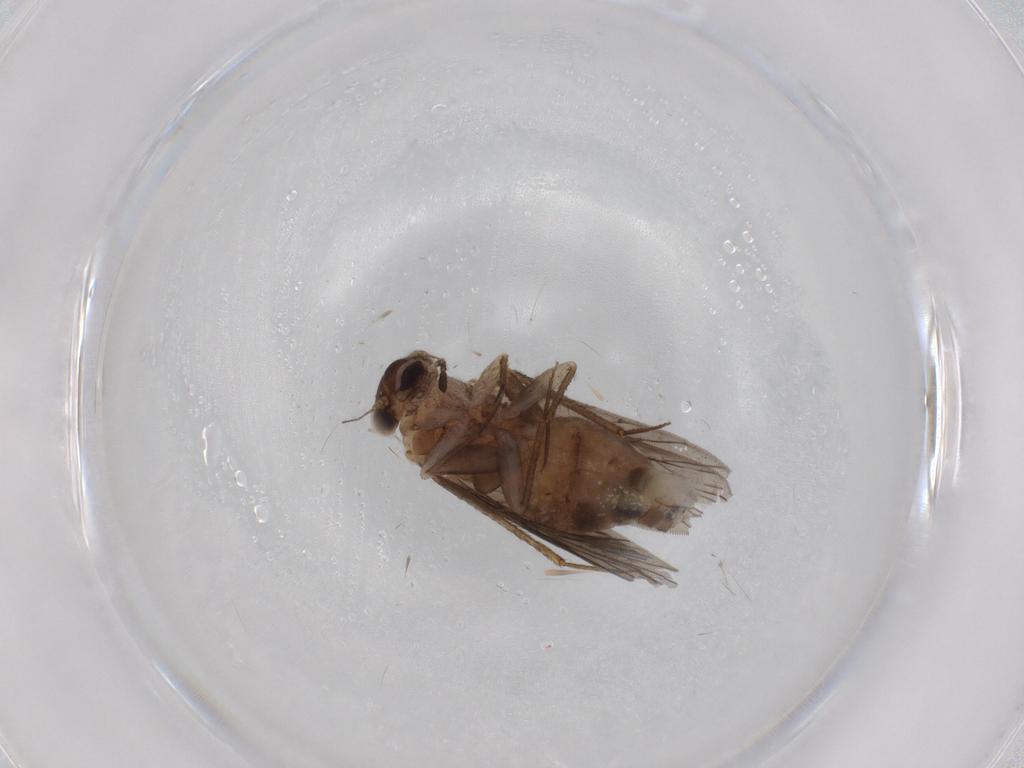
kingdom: Animalia
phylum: Arthropoda
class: Insecta
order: Psocodea
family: Lepidopsocidae
